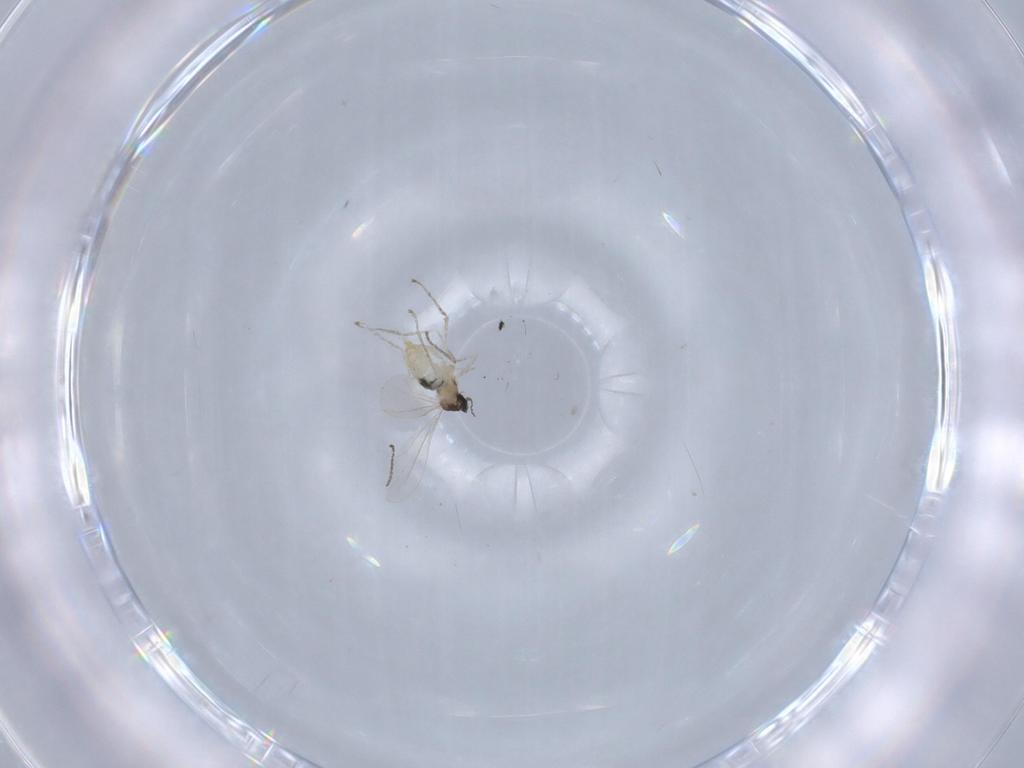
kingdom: Animalia
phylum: Arthropoda
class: Insecta
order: Diptera
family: Cecidomyiidae
